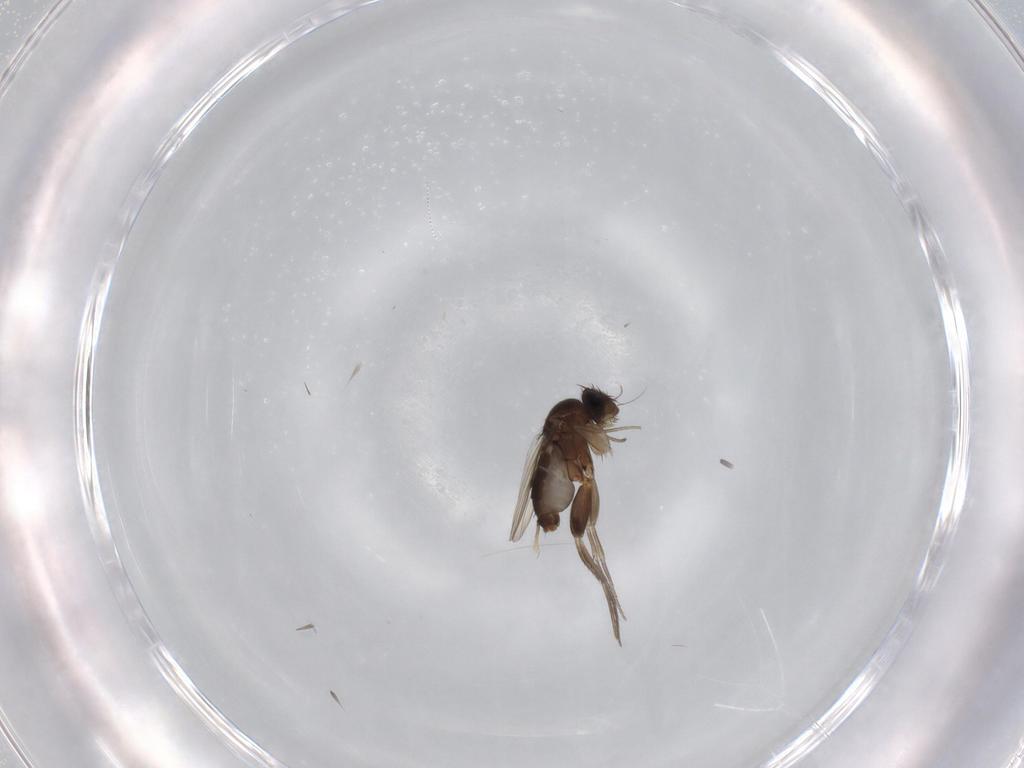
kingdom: Animalia
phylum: Arthropoda
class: Insecta
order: Diptera
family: Phoridae
